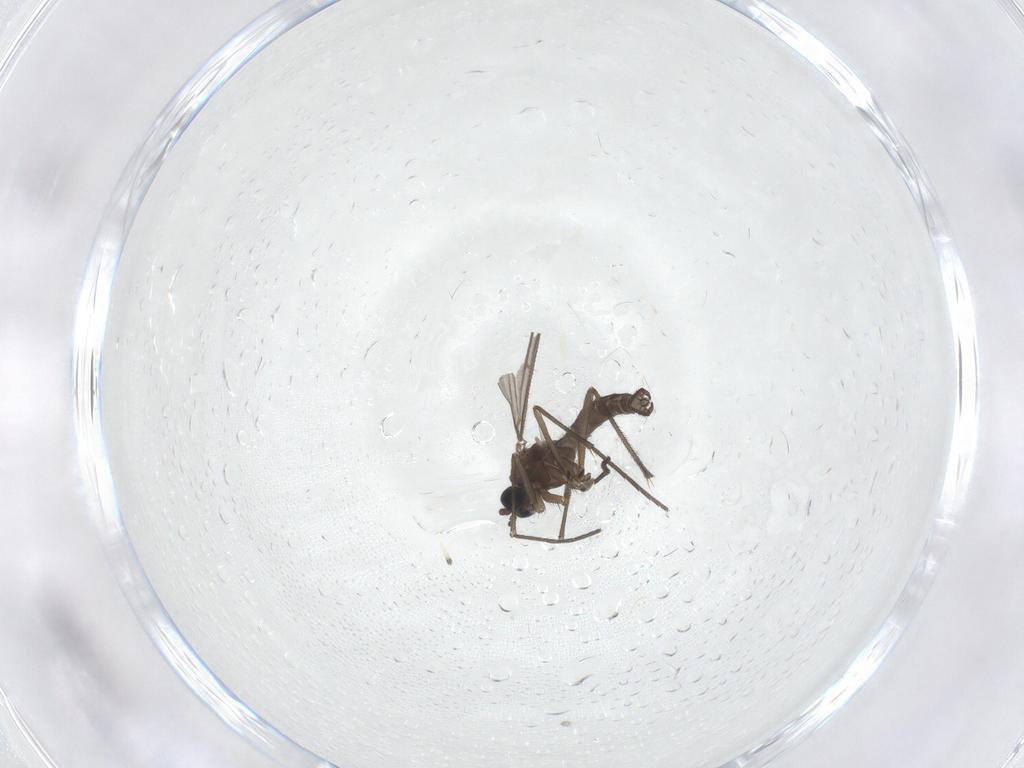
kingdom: Animalia
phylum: Arthropoda
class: Insecta
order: Diptera
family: Sciaridae
